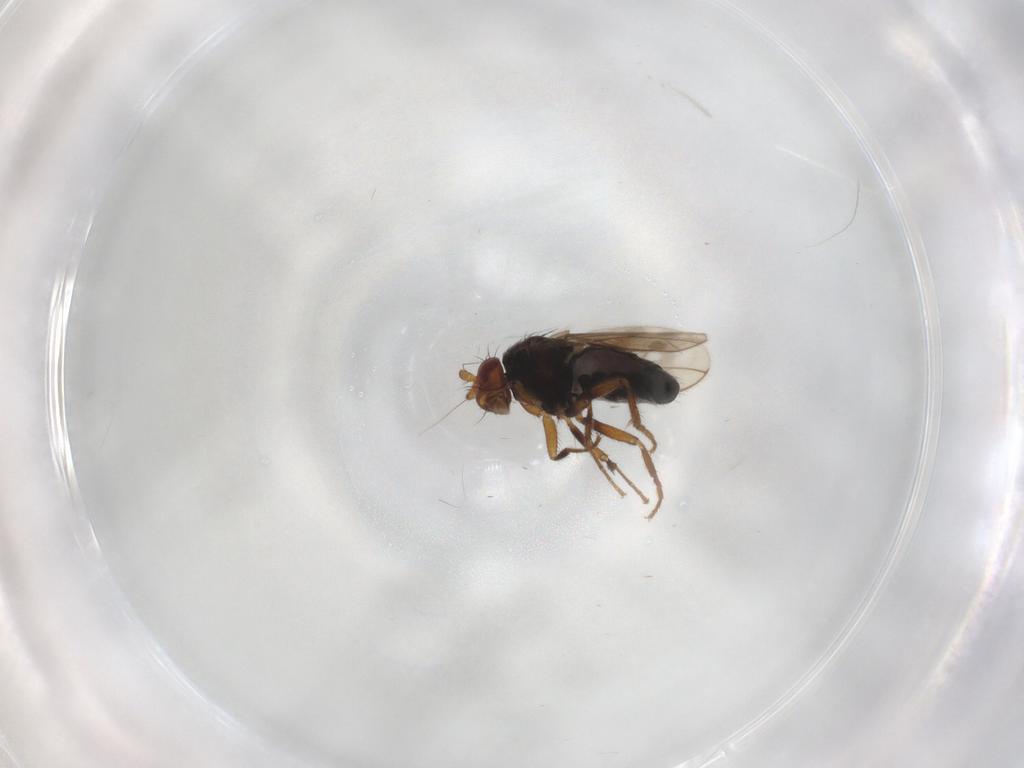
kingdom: Animalia
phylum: Arthropoda
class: Insecta
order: Diptera
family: Sphaeroceridae
